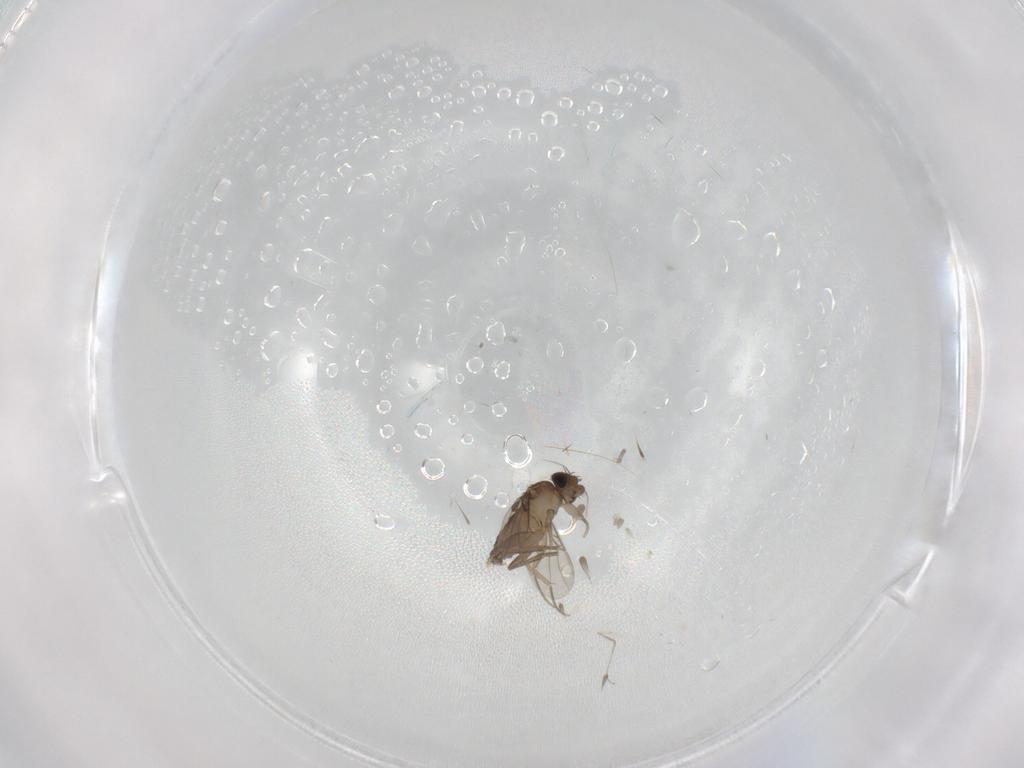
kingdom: Animalia
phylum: Arthropoda
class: Insecta
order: Diptera
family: Phoridae
